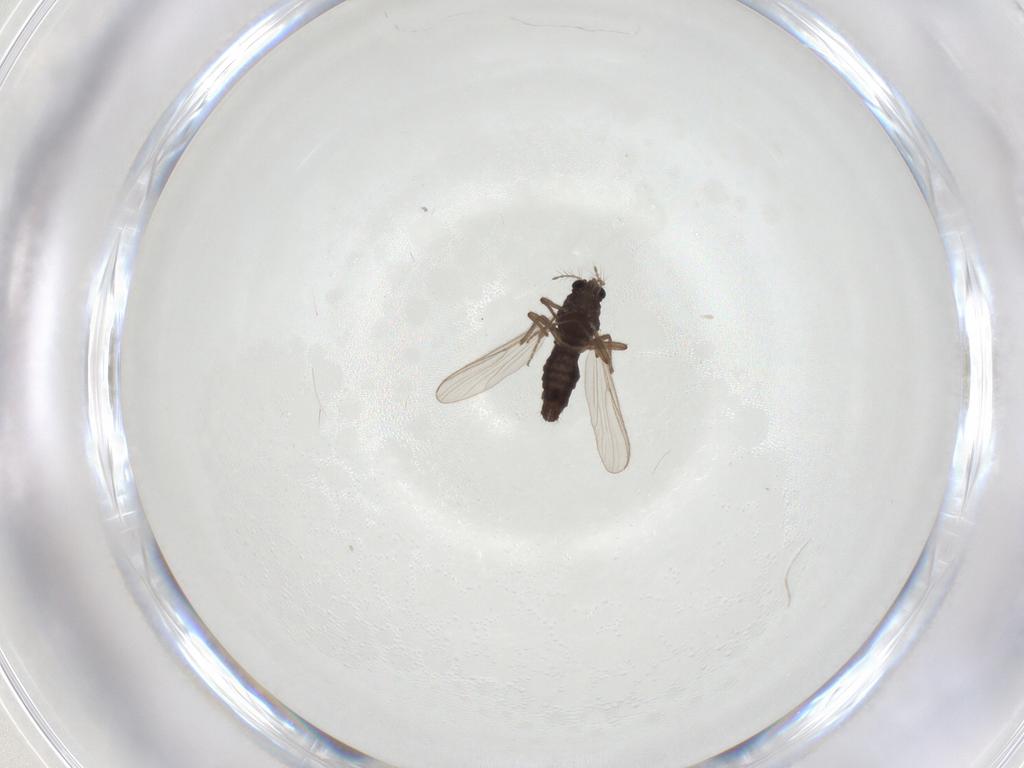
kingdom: Animalia
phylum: Arthropoda
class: Insecta
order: Diptera
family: Chironomidae
